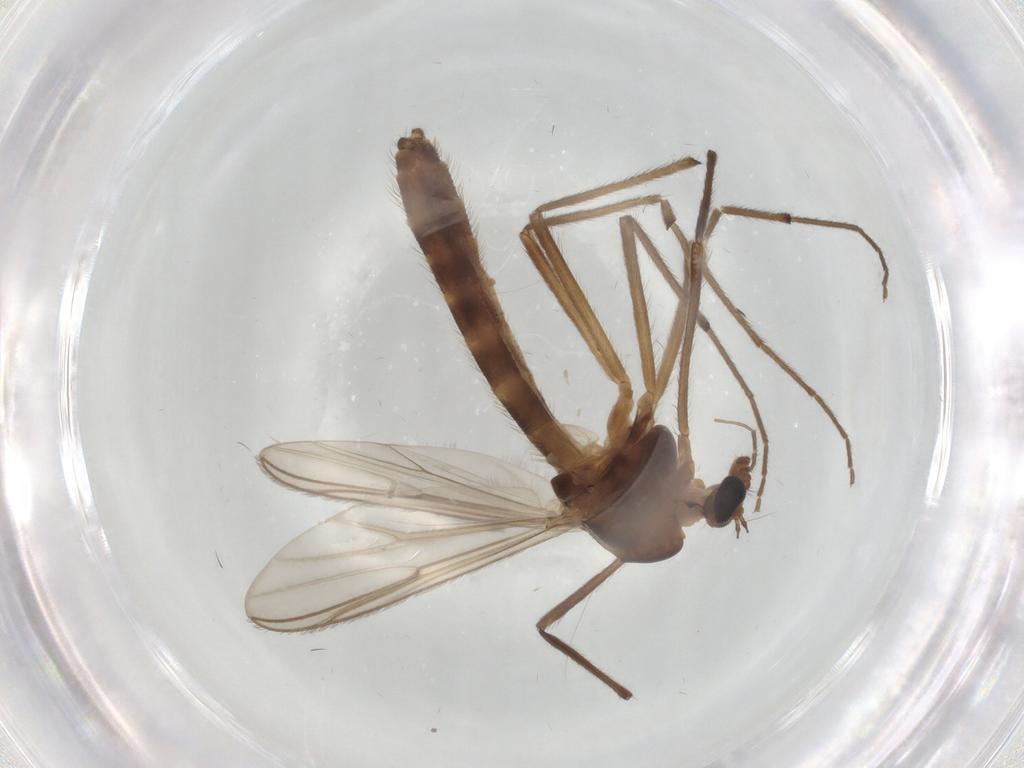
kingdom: Animalia
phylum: Arthropoda
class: Insecta
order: Diptera
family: Chironomidae
